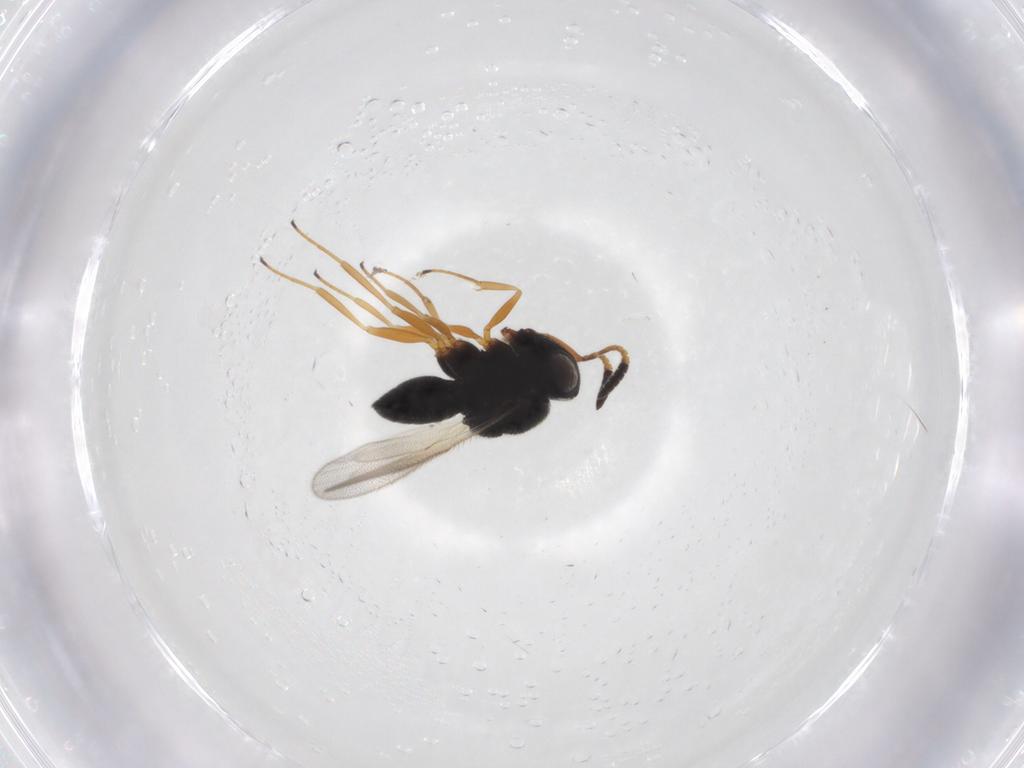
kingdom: Animalia
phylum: Arthropoda
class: Insecta
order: Hymenoptera
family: Scelionidae
